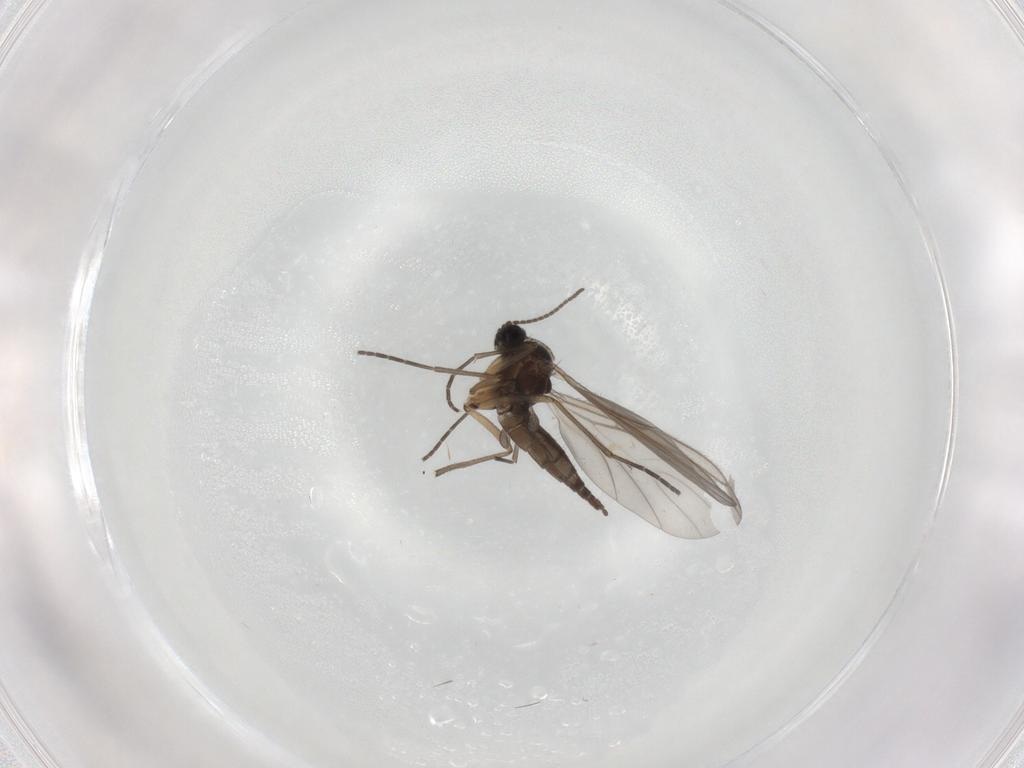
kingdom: Animalia
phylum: Arthropoda
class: Insecta
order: Diptera
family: Sciaridae
